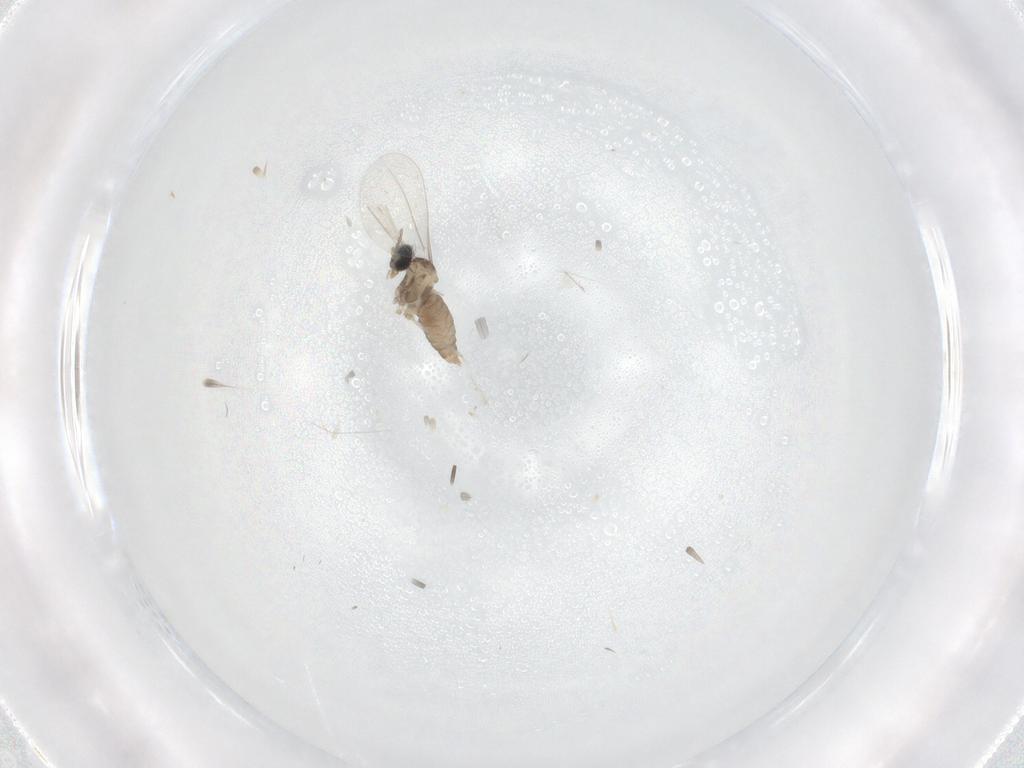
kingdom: Animalia
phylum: Arthropoda
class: Insecta
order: Diptera
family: Cecidomyiidae
